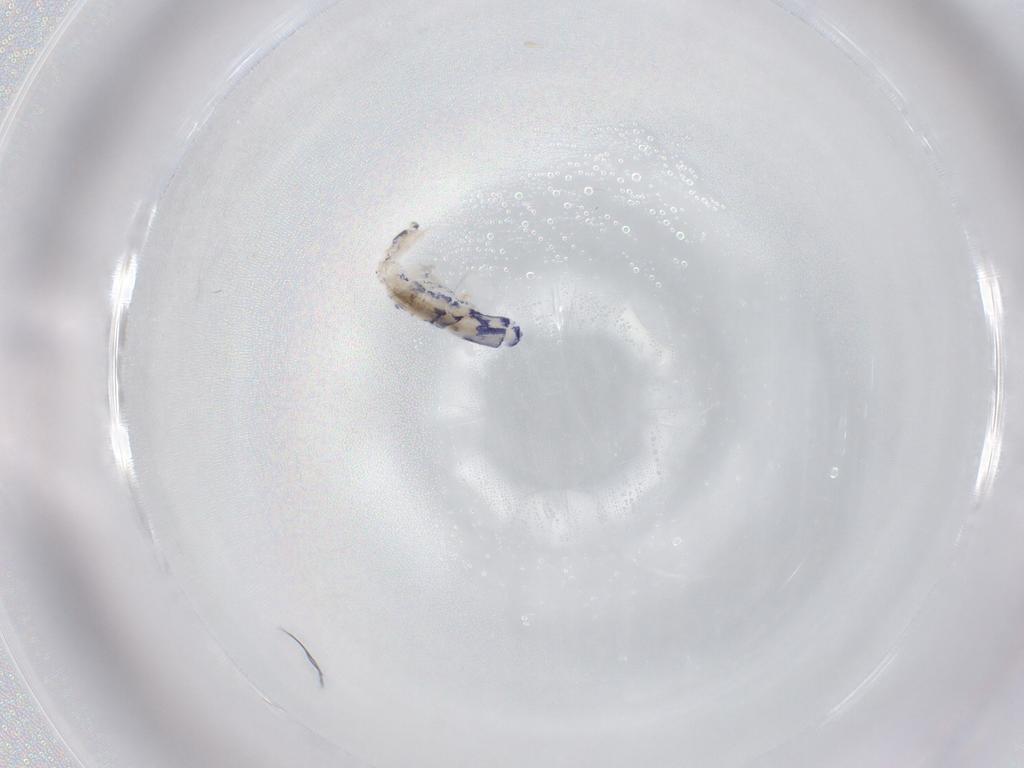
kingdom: Animalia
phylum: Arthropoda
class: Collembola
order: Entomobryomorpha
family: Entomobryidae
